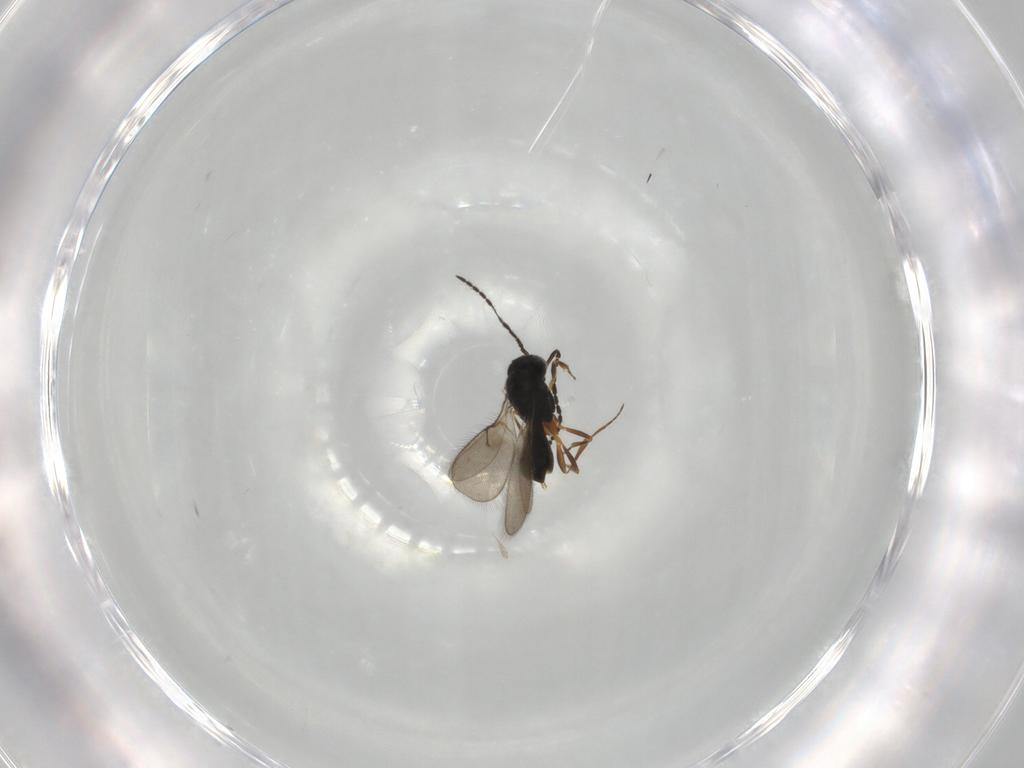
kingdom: Animalia
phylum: Arthropoda
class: Insecta
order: Hymenoptera
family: Scelionidae
